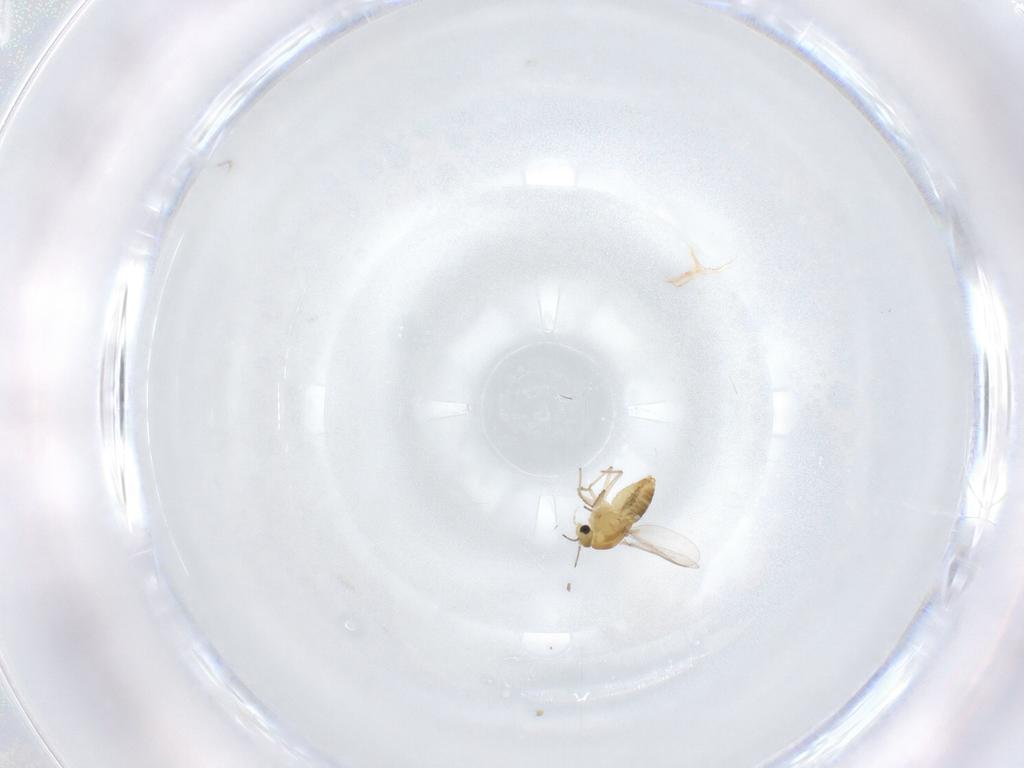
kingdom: Animalia
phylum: Arthropoda
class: Insecta
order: Diptera
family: Chironomidae
